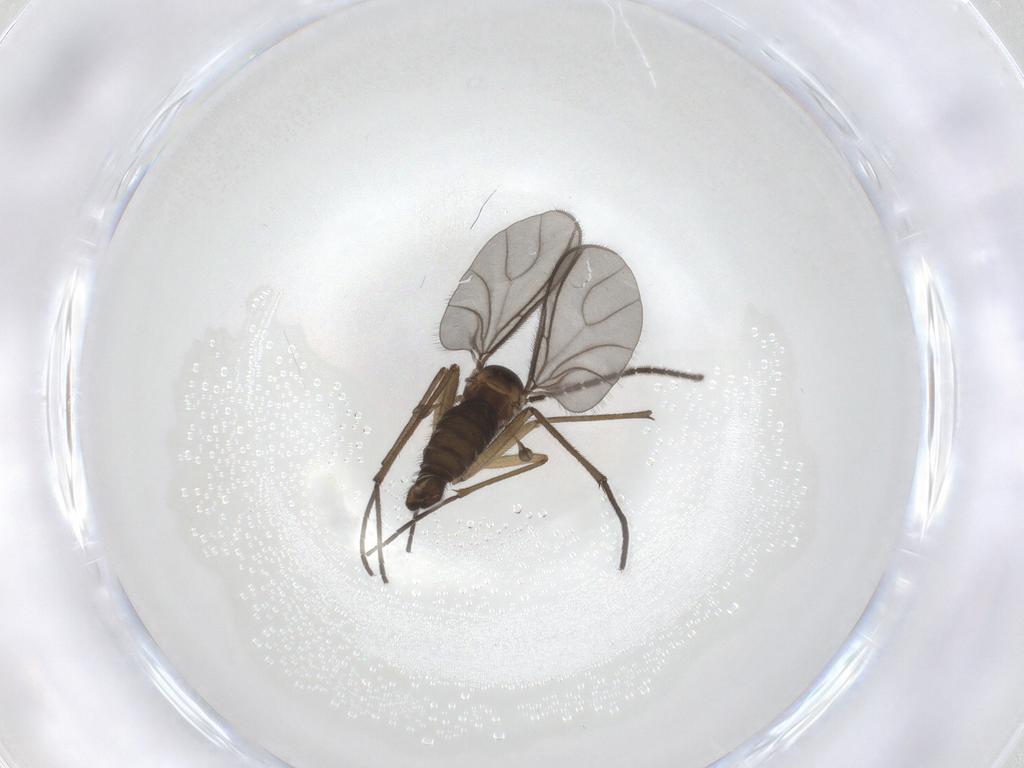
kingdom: Animalia
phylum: Arthropoda
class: Insecta
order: Diptera
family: Sciaridae
